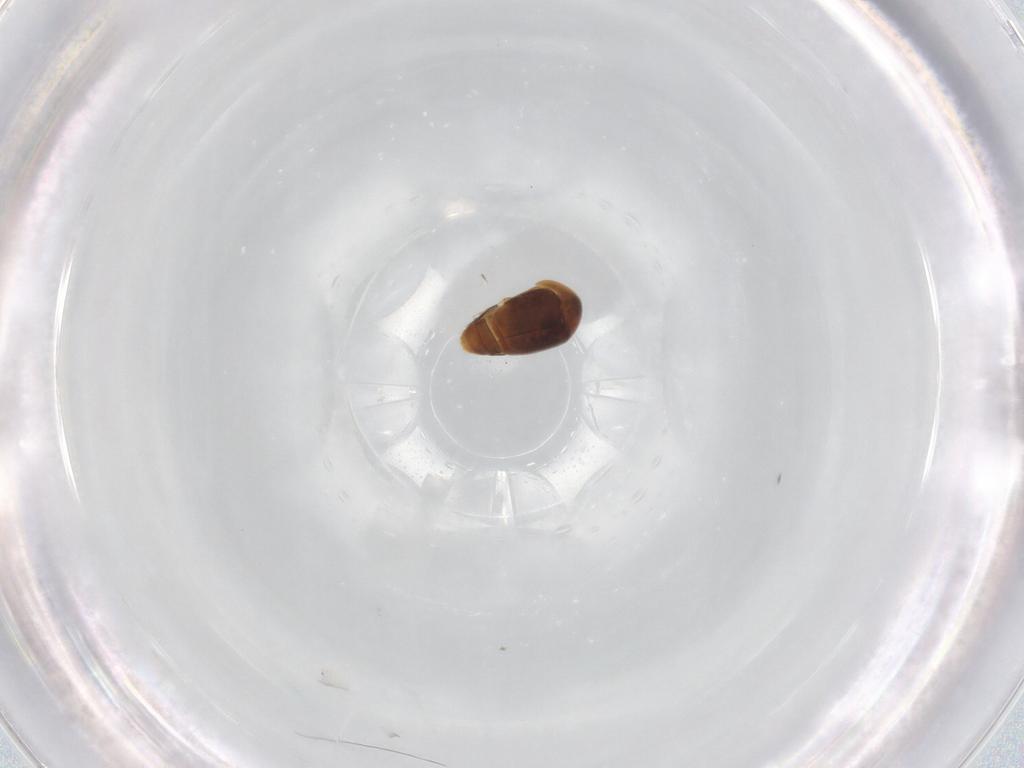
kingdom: Animalia
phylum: Arthropoda
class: Insecta
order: Coleoptera
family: Corylophidae
